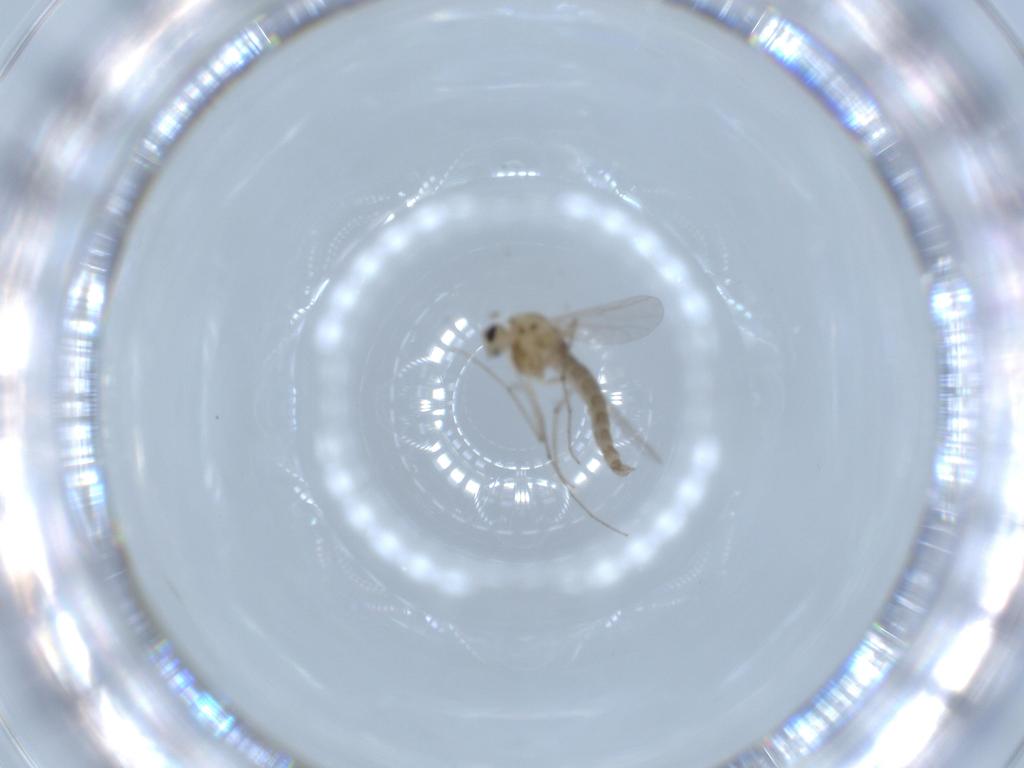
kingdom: Animalia
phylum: Arthropoda
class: Insecta
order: Diptera
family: Chironomidae
